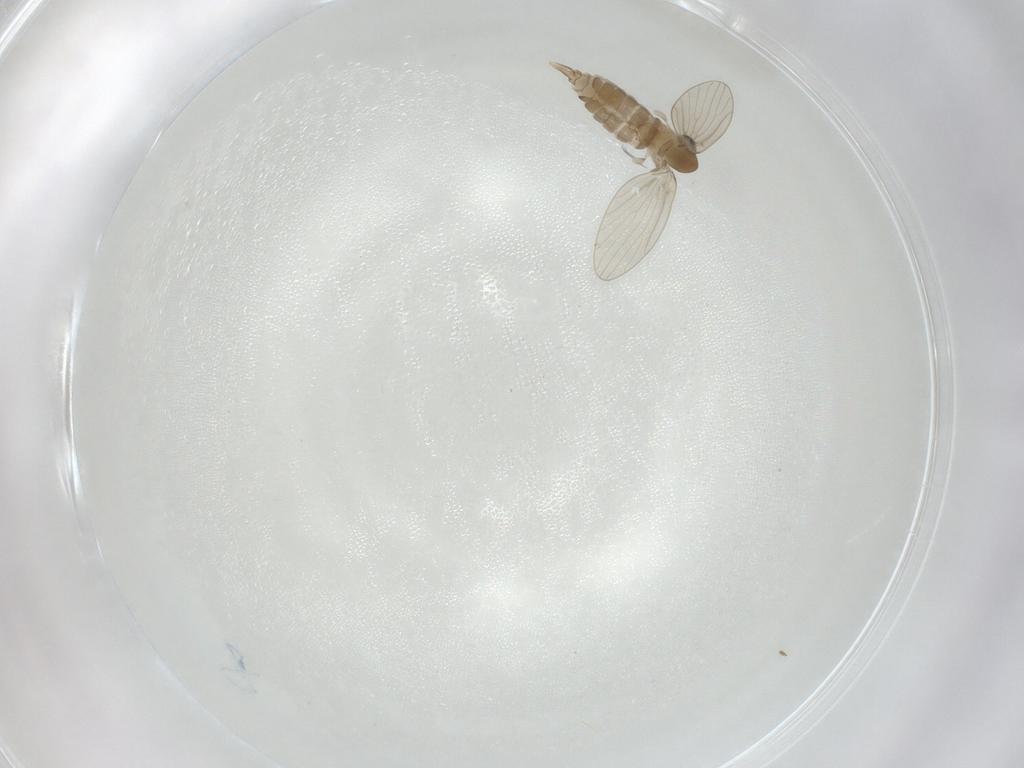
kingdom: Animalia
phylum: Arthropoda
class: Insecta
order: Diptera
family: Psychodidae
